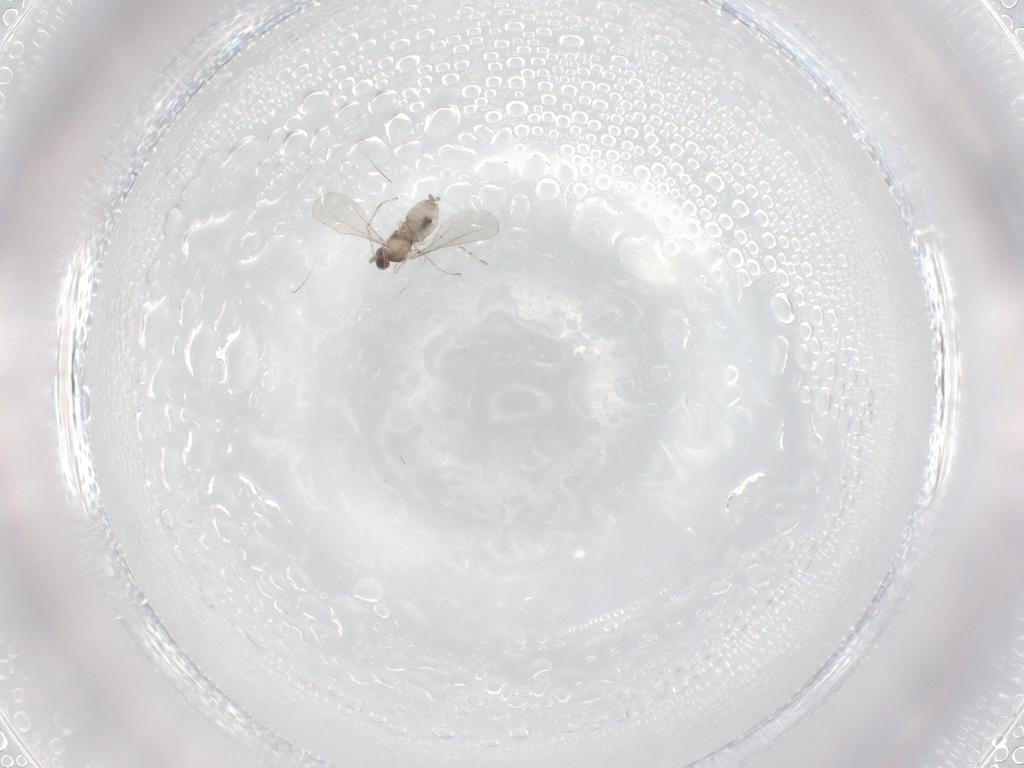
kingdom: Animalia
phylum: Arthropoda
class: Insecta
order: Diptera
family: Cecidomyiidae
